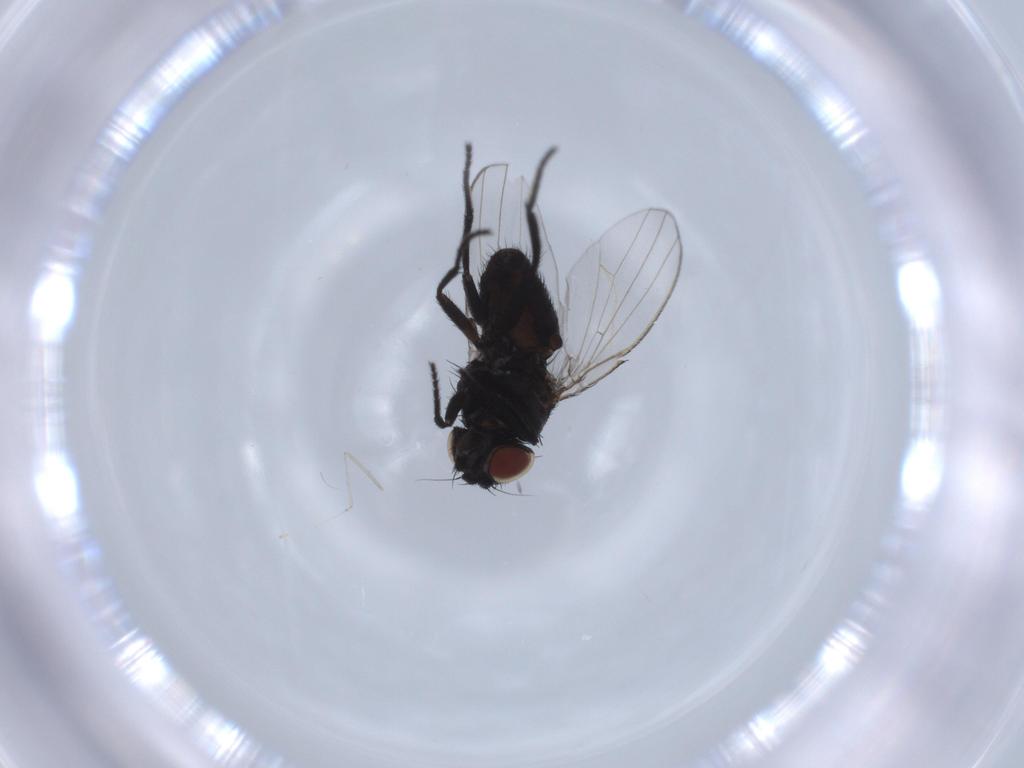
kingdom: Animalia
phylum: Arthropoda
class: Insecta
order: Diptera
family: Milichiidae
